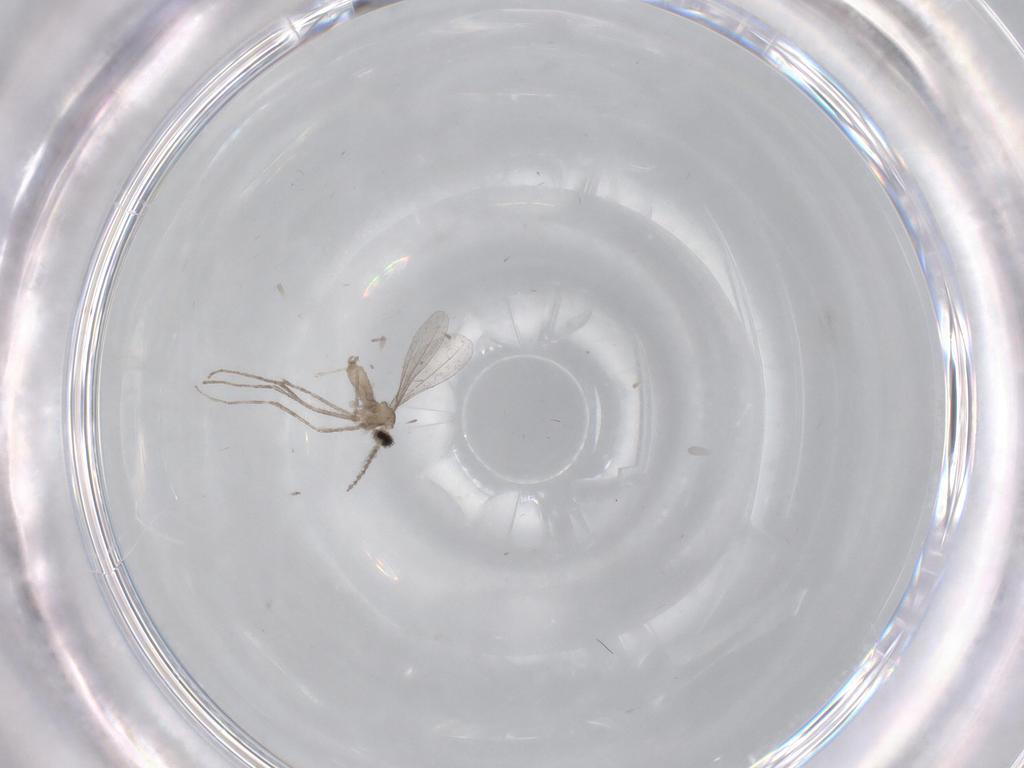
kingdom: Animalia
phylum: Arthropoda
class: Insecta
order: Diptera
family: Cecidomyiidae
